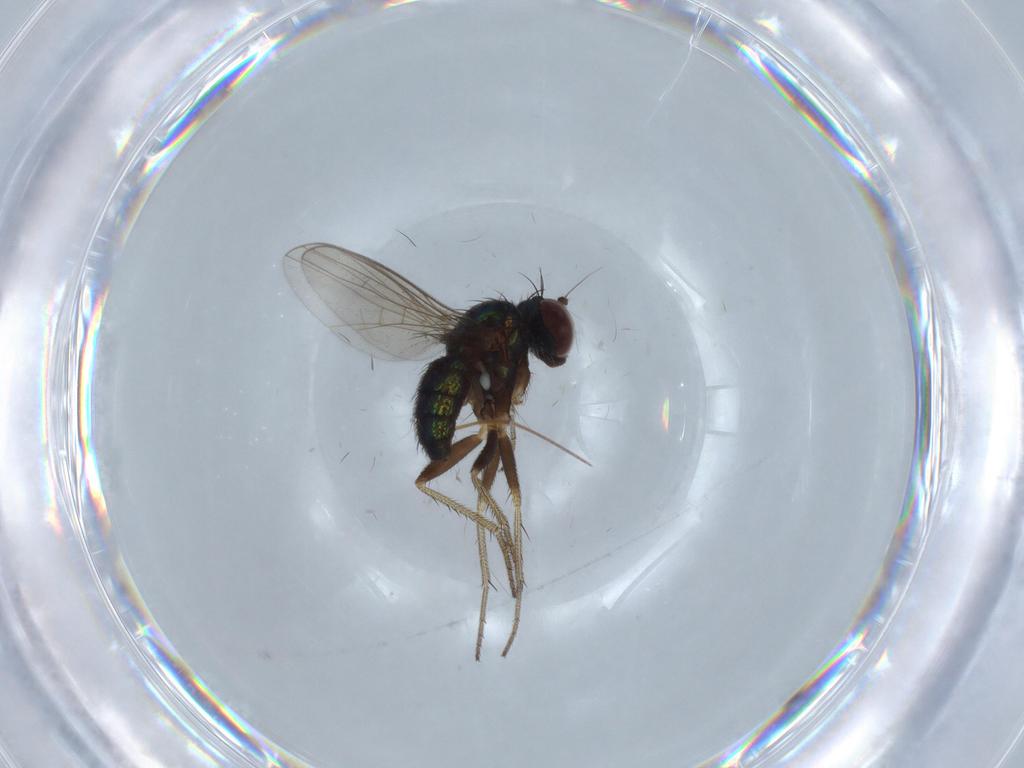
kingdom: Animalia
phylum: Arthropoda
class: Insecta
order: Diptera
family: Dolichopodidae
